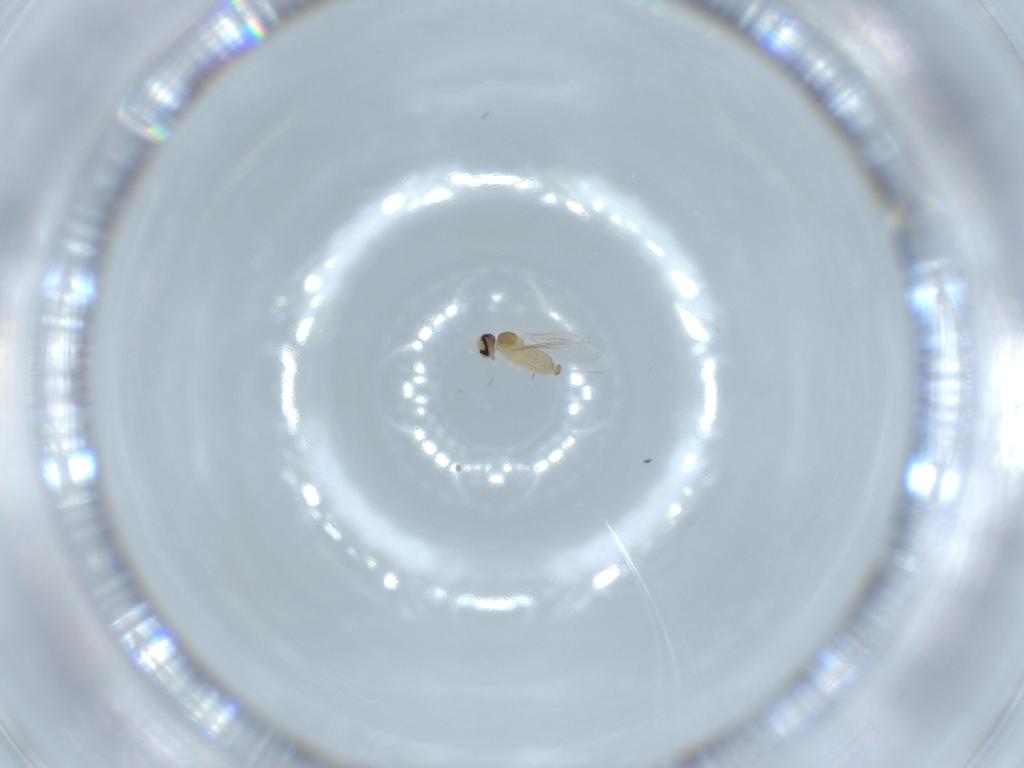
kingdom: Animalia
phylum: Arthropoda
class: Insecta
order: Diptera
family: Cecidomyiidae
